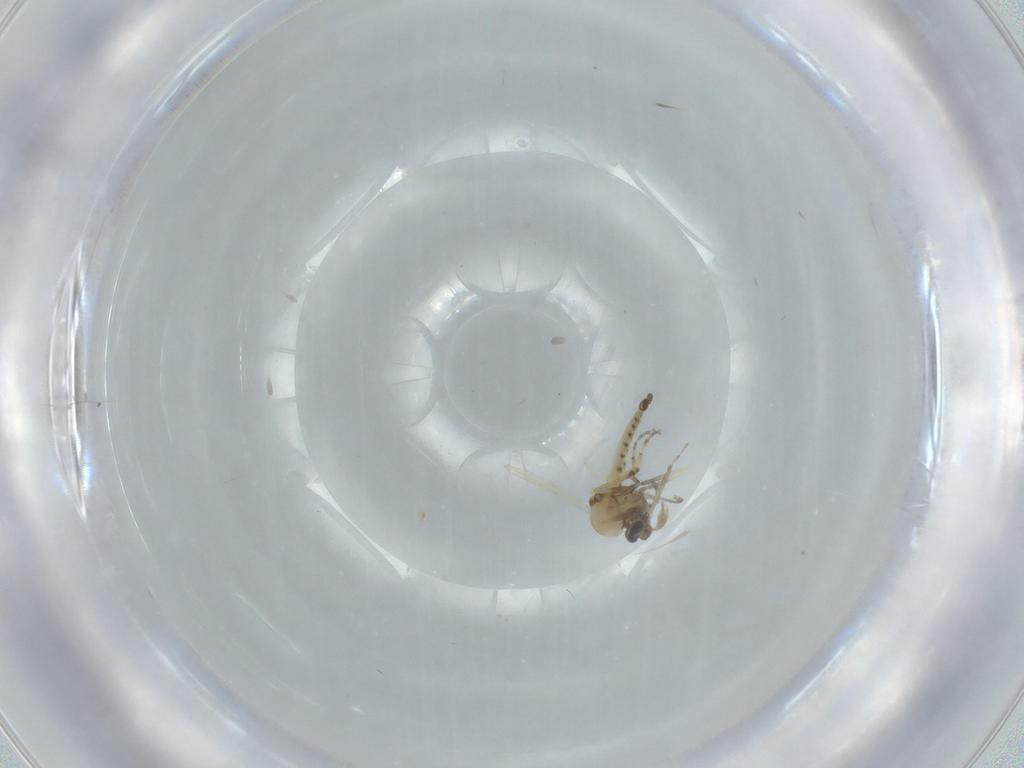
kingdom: Animalia
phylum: Arthropoda
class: Insecta
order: Diptera
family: Ceratopogonidae
